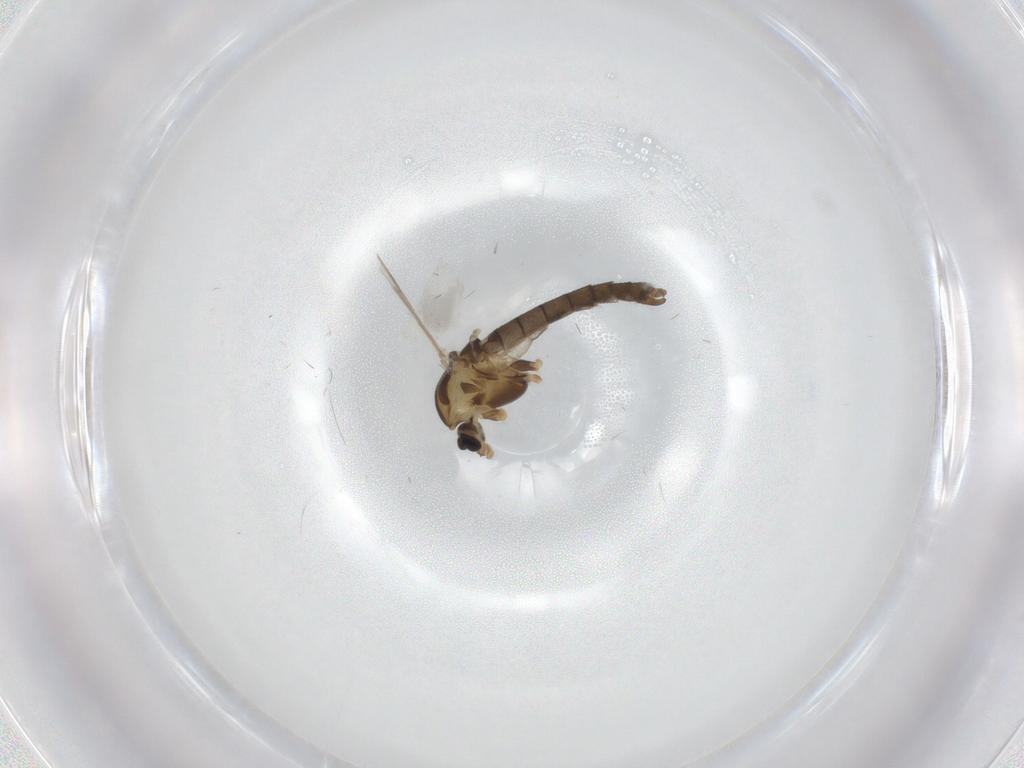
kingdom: Animalia
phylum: Arthropoda
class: Insecta
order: Diptera
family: Chironomidae
